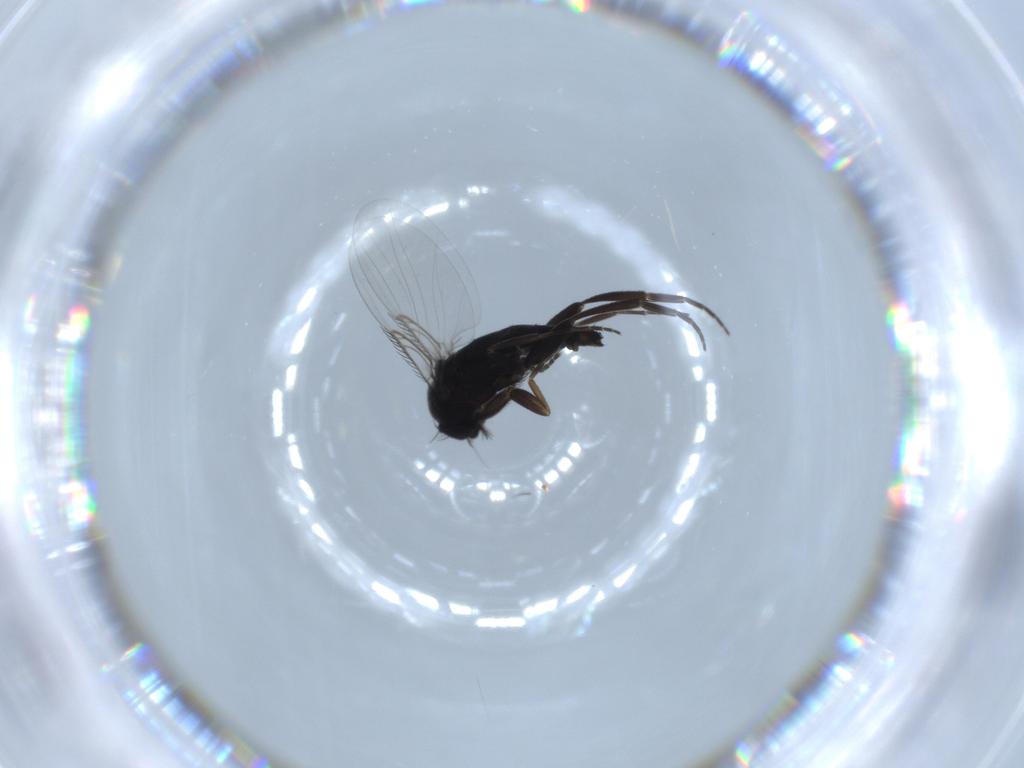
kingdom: Animalia
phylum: Arthropoda
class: Insecta
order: Diptera
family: Phoridae
